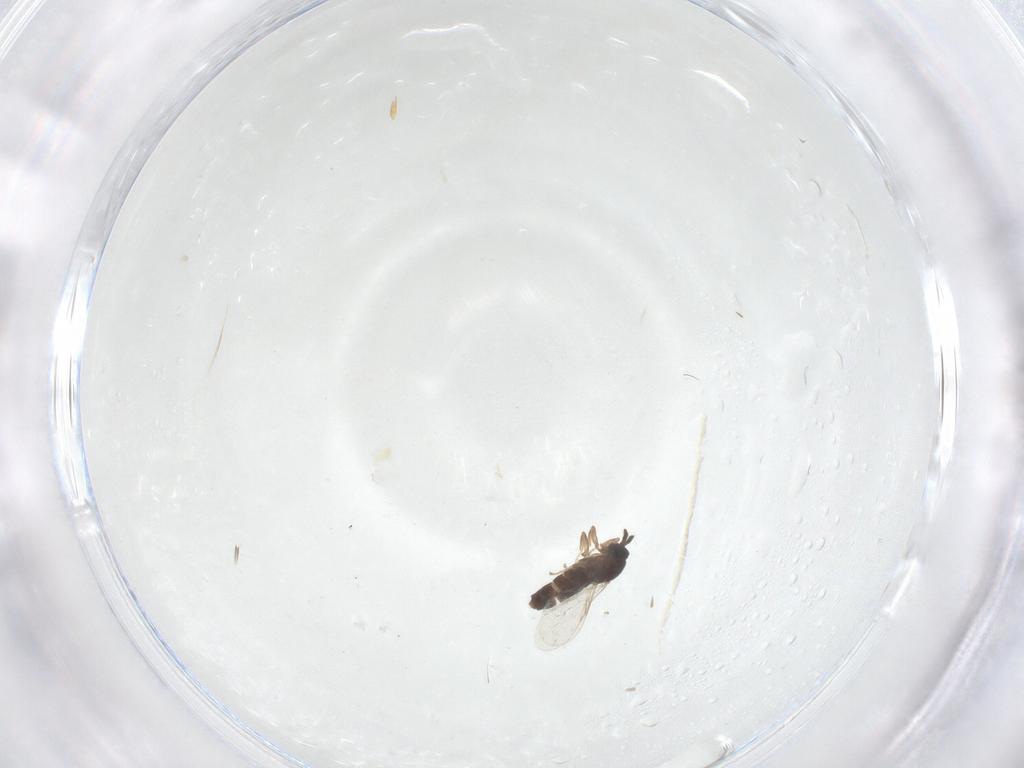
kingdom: Animalia
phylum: Arthropoda
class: Insecta
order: Diptera
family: Scatopsidae
